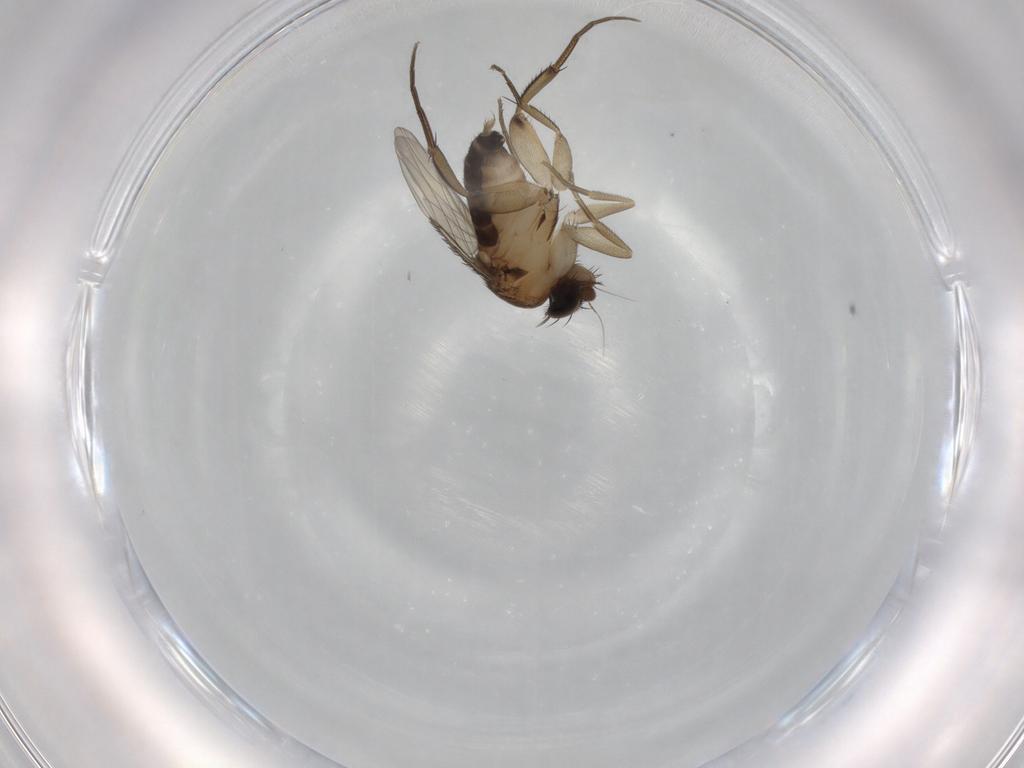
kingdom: Animalia
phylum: Arthropoda
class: Insecta
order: Diptera
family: Phoridae
